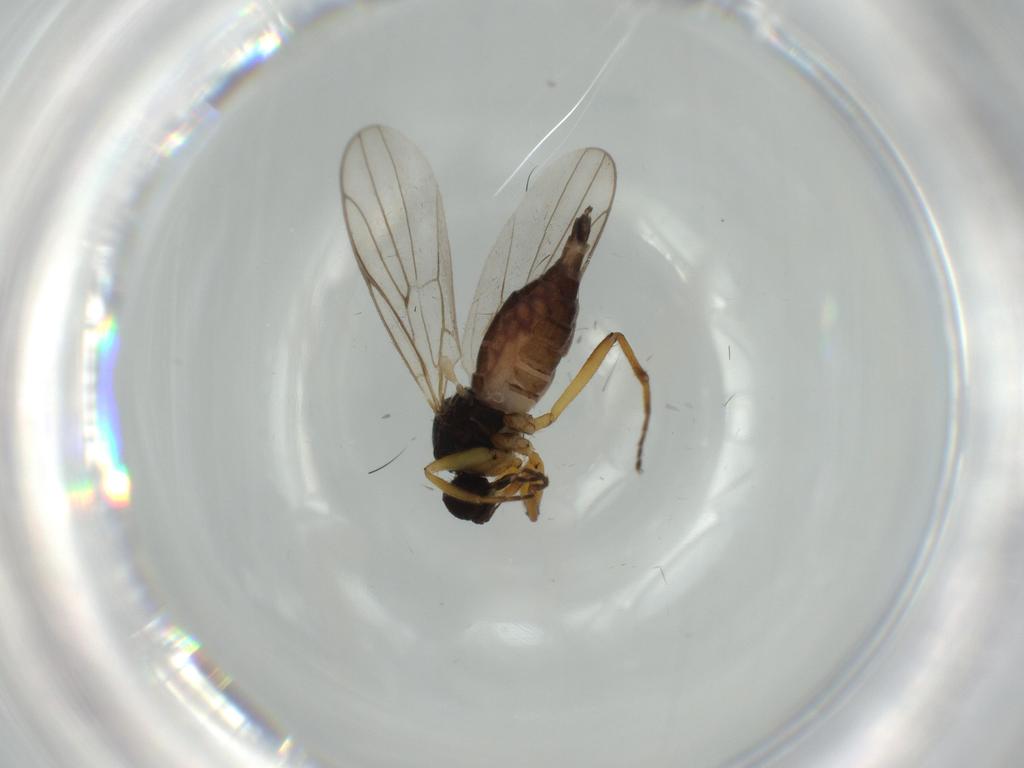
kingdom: Animalia
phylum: Arthropoda
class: Insecta
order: Diptera
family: Hybotidae
